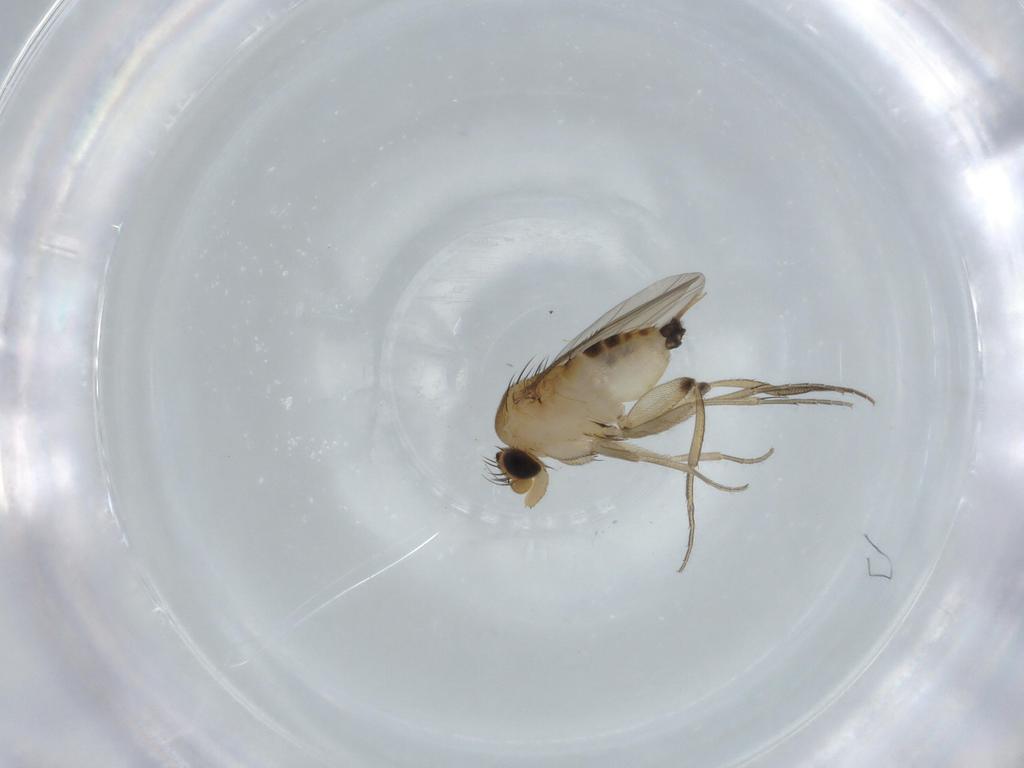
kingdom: Animalia
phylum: Arthropoda
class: Insecta
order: Diptera
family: Phoridae
